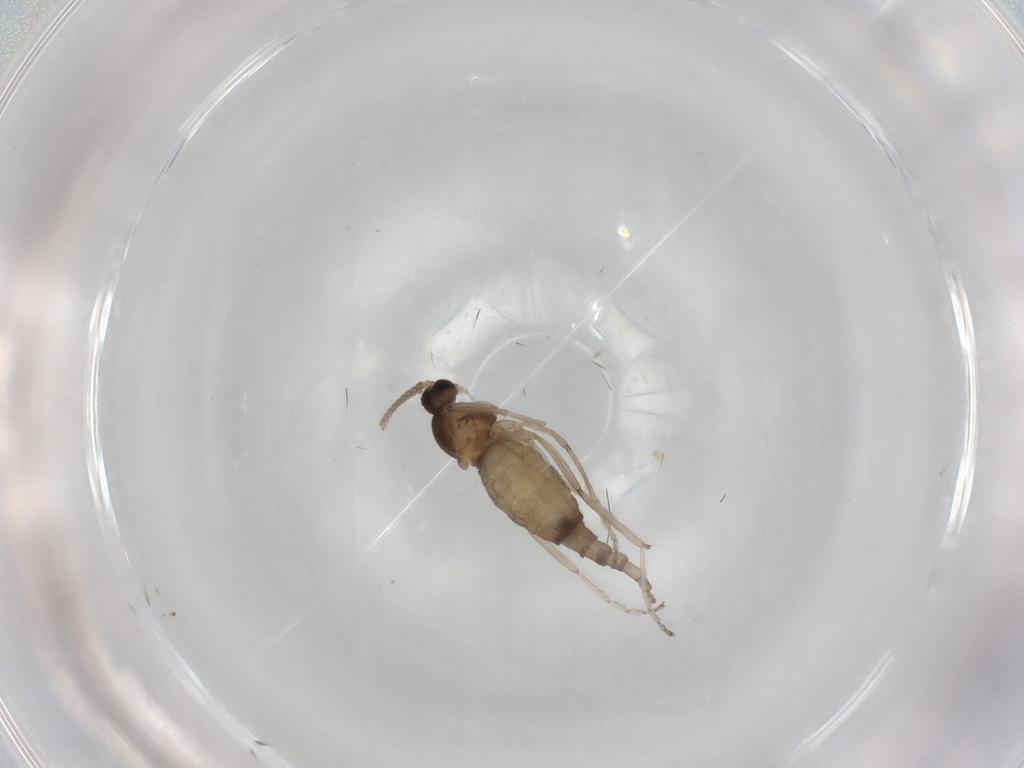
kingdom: Animalia
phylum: Arthropoda
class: Insecta
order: Diptera
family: Cecidomyiidae
